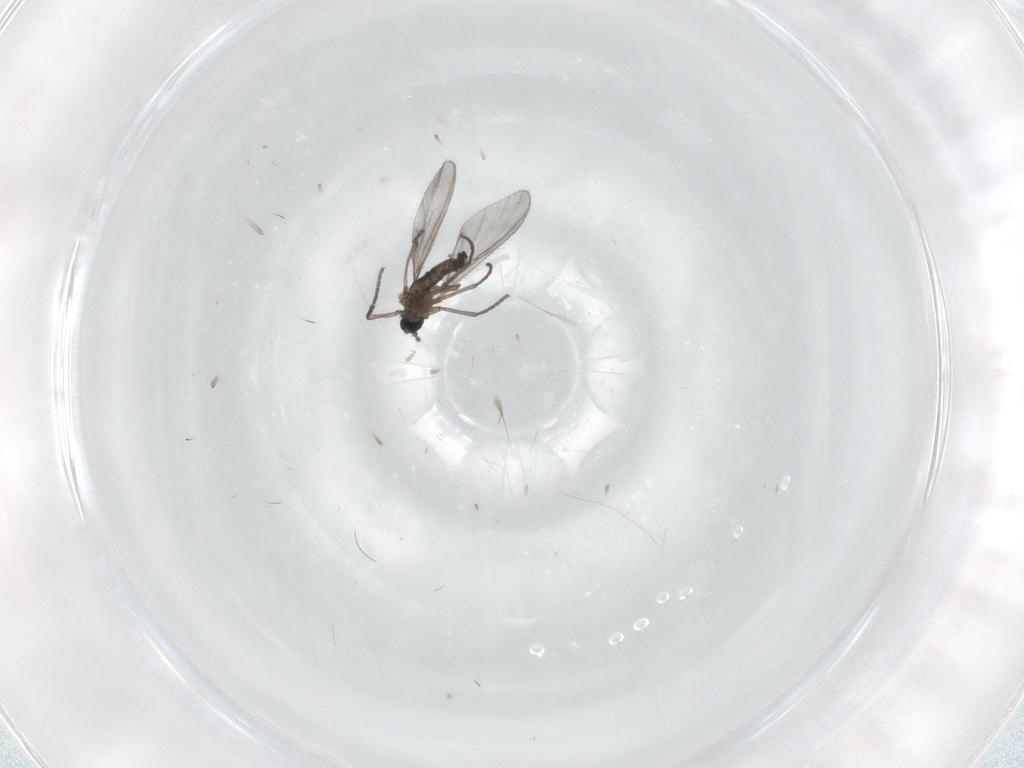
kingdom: Animalia
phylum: Arthropoda
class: Insecta
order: Diptera
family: Sciaridae
